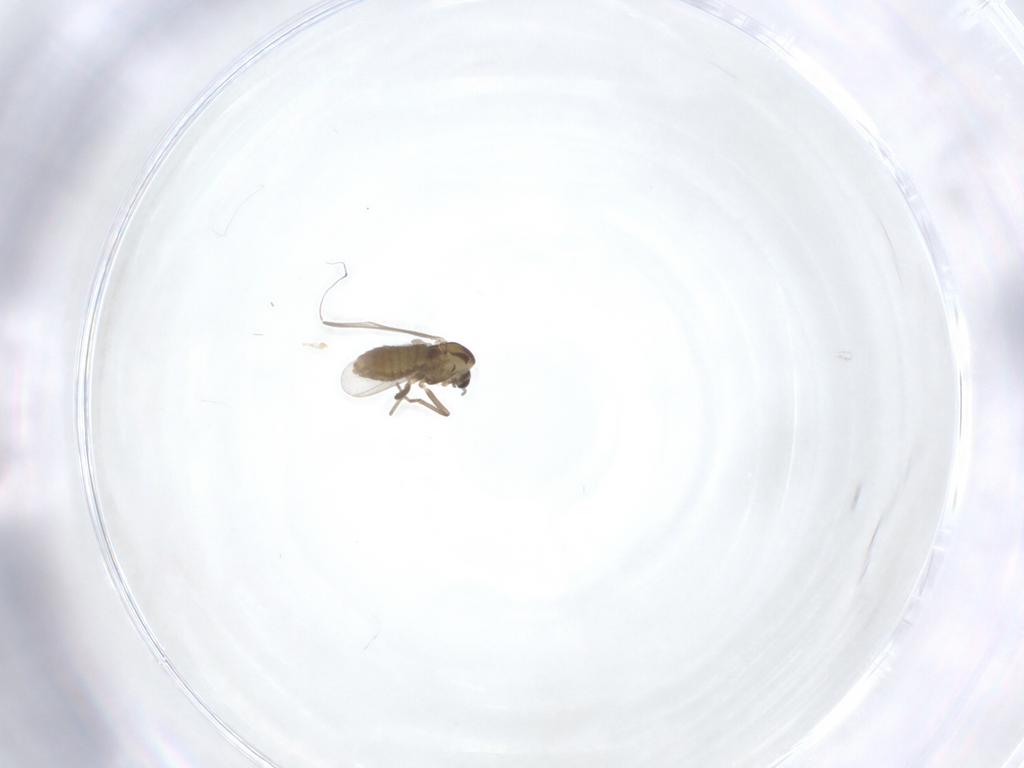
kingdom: Animalia
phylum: Arthropoda
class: Insecta
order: Diptera
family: Chironomidae
